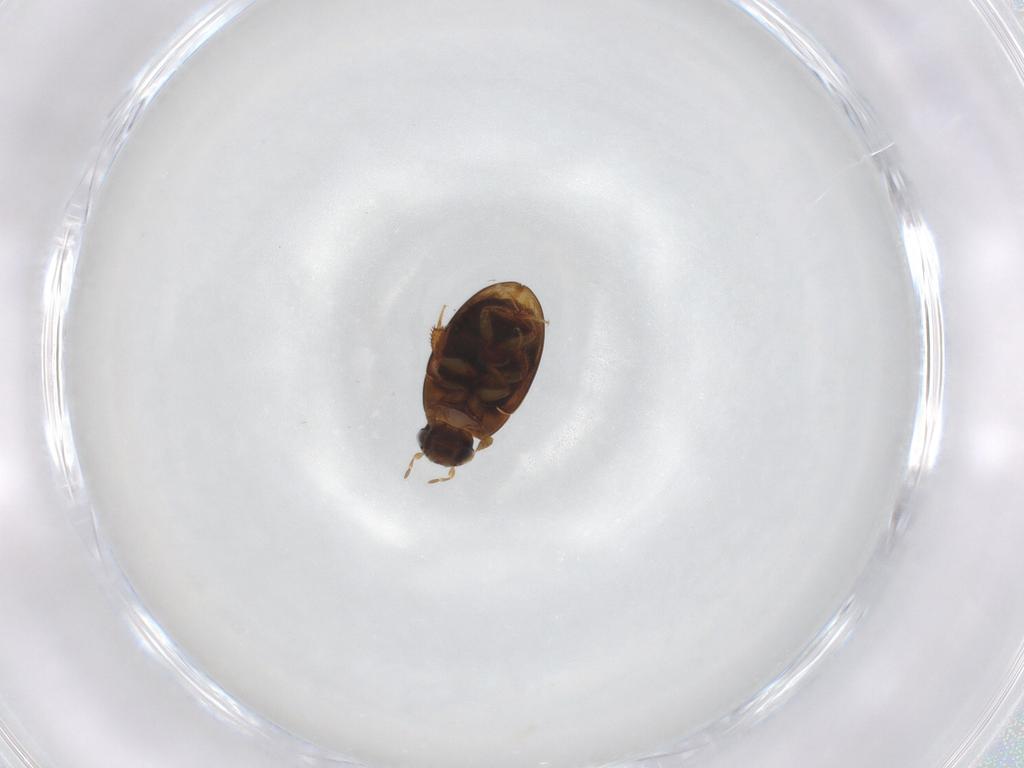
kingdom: Animalia
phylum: Arthropoda
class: Insecta
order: Coleoptera
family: Hydrophilidae
